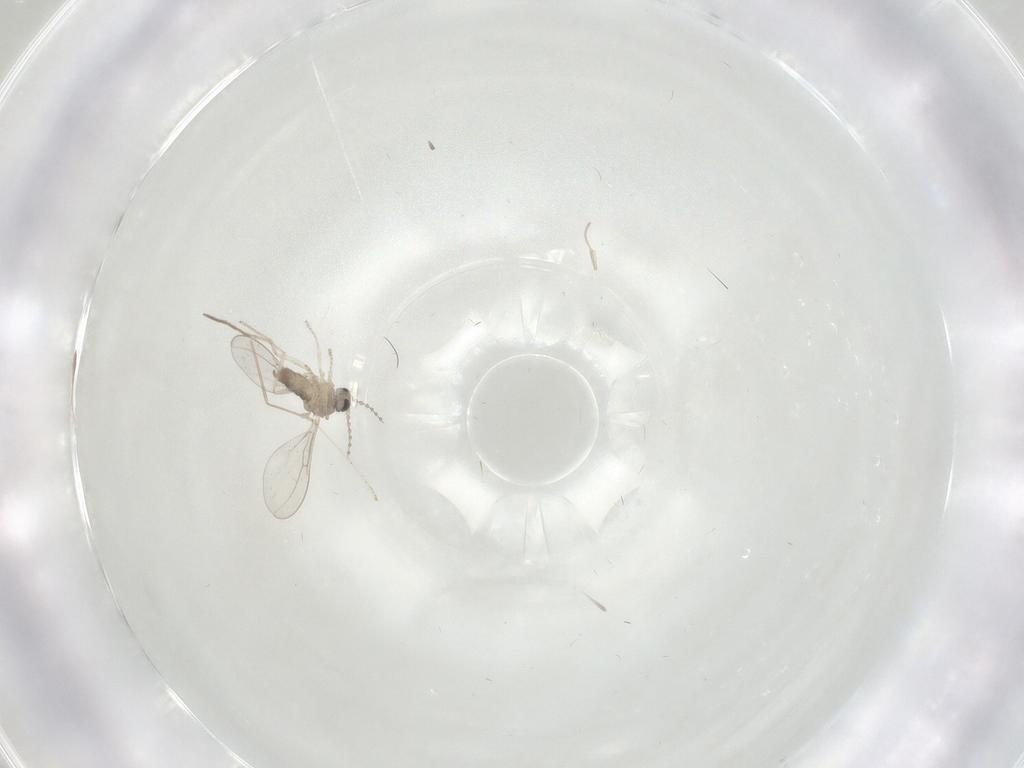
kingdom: Animalia
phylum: Arthropoda
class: Insecta
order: Diptera
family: Cecidomyiidae
